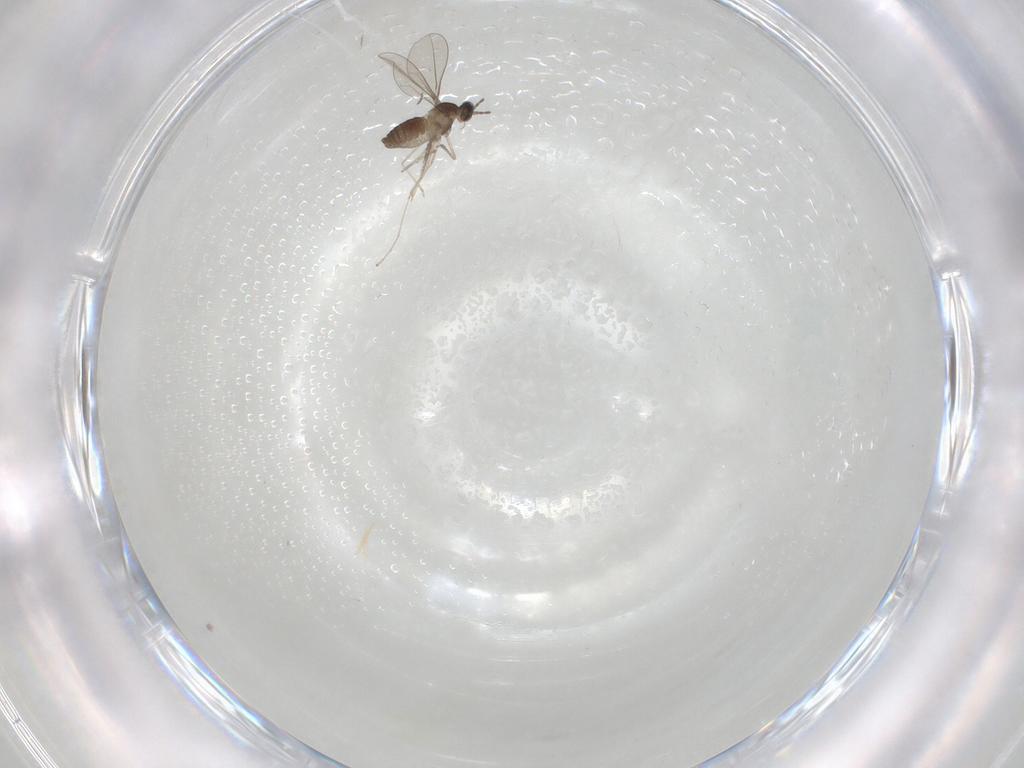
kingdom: Animalia
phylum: Arthropoda
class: Insecta
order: Diptera
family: Cecidomyiidae
